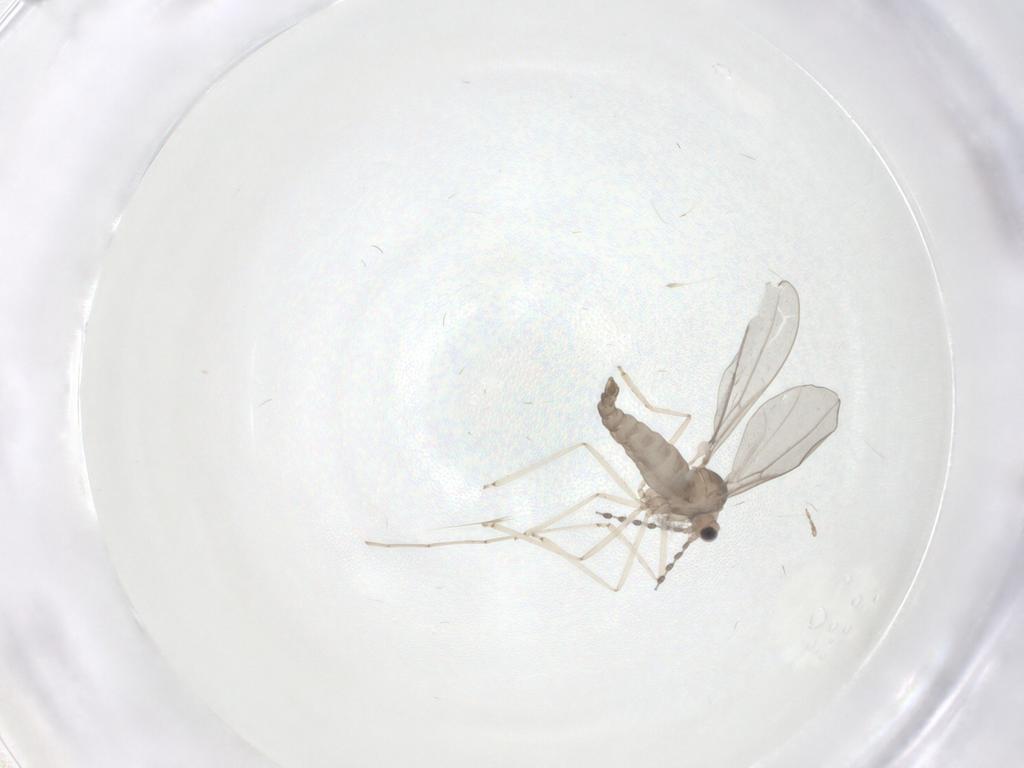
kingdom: Animalia
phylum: Arthropoda
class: Insecta
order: Diptera
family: Cecidomyiidae
